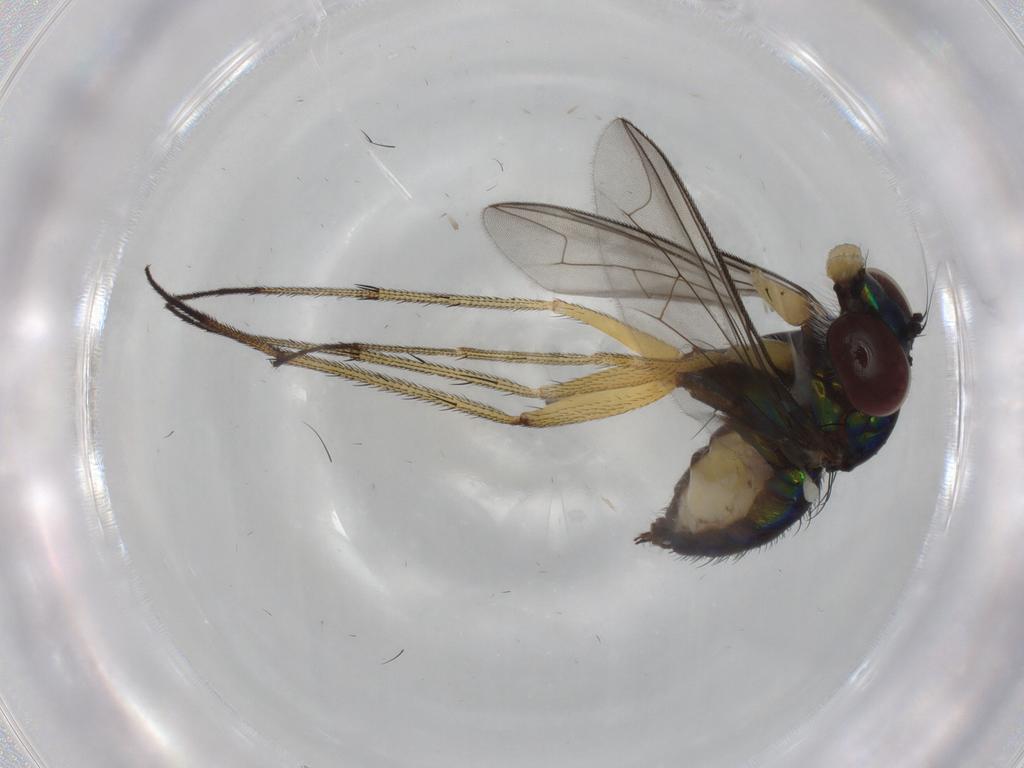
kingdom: Animalia
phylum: Arthropoda
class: Insecta
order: Diptera
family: Dolichopodidae
